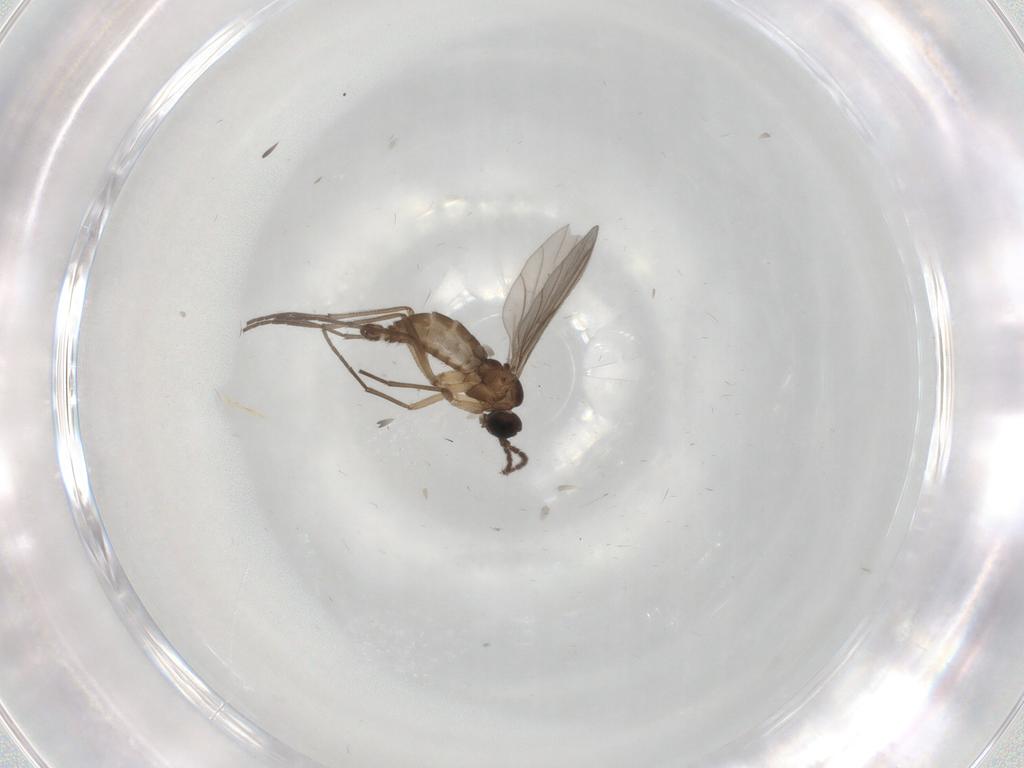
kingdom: Animalia
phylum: Arthropoda
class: Insecta
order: Diptera
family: Sciaridae
